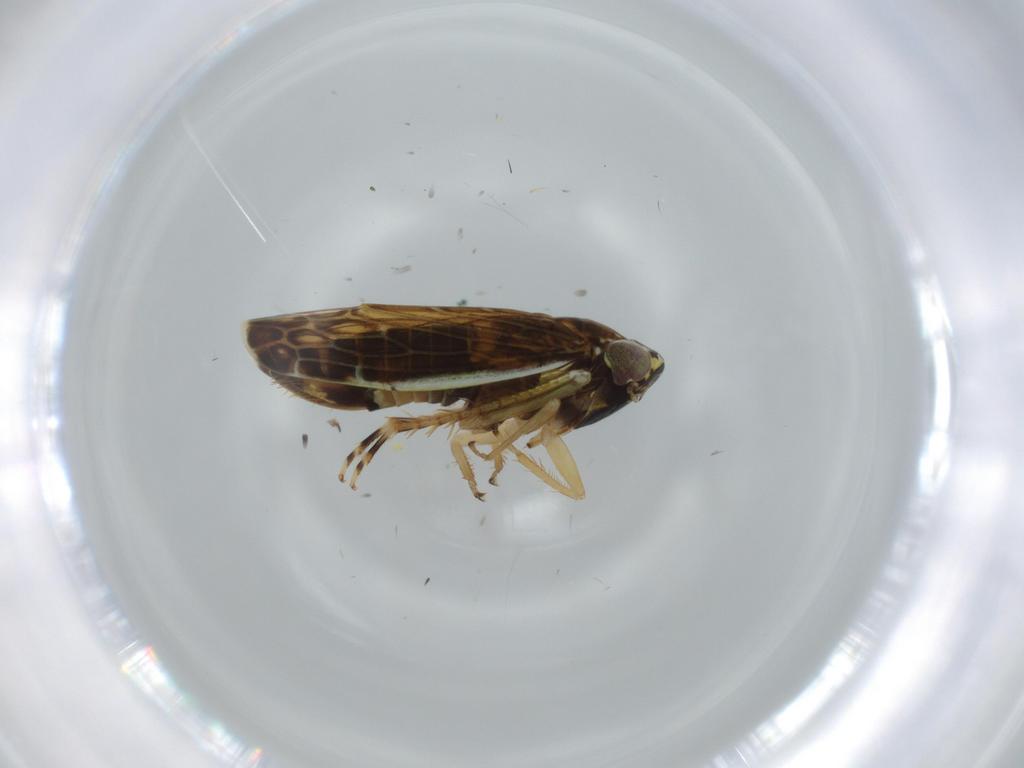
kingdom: Animalia
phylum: Arthropoda
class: Insecta
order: Hemiptera
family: Cicadellidae
